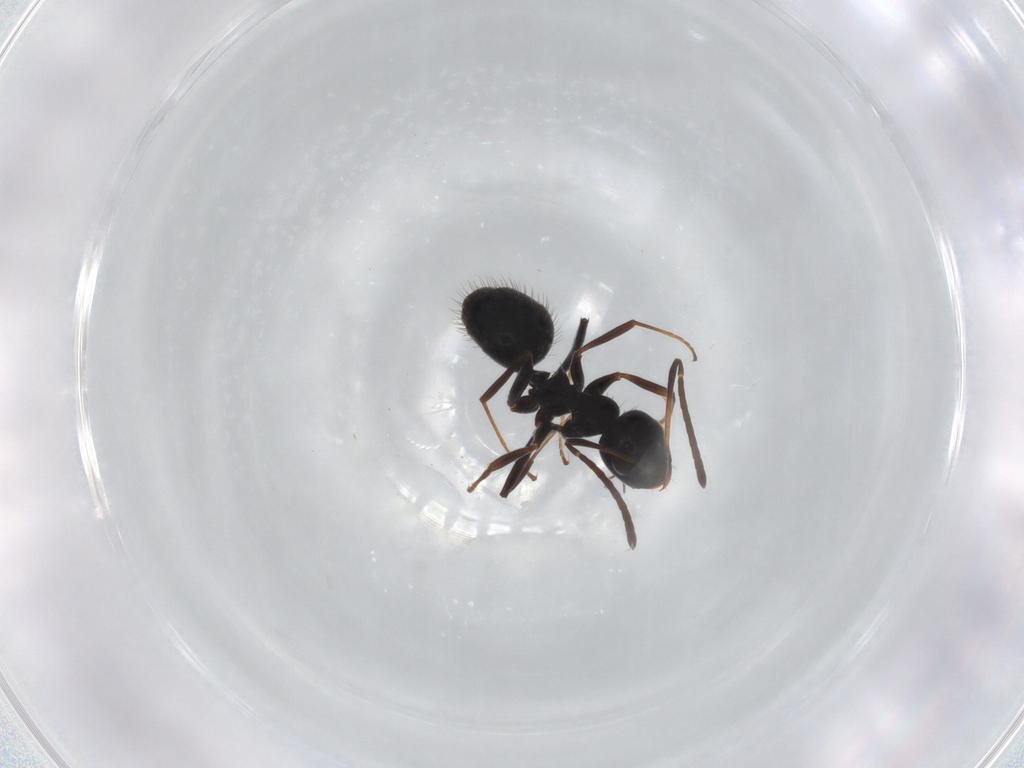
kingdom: Animalia
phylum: Arthropoda
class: Insecta
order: Hymenoptera
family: Formicidae
